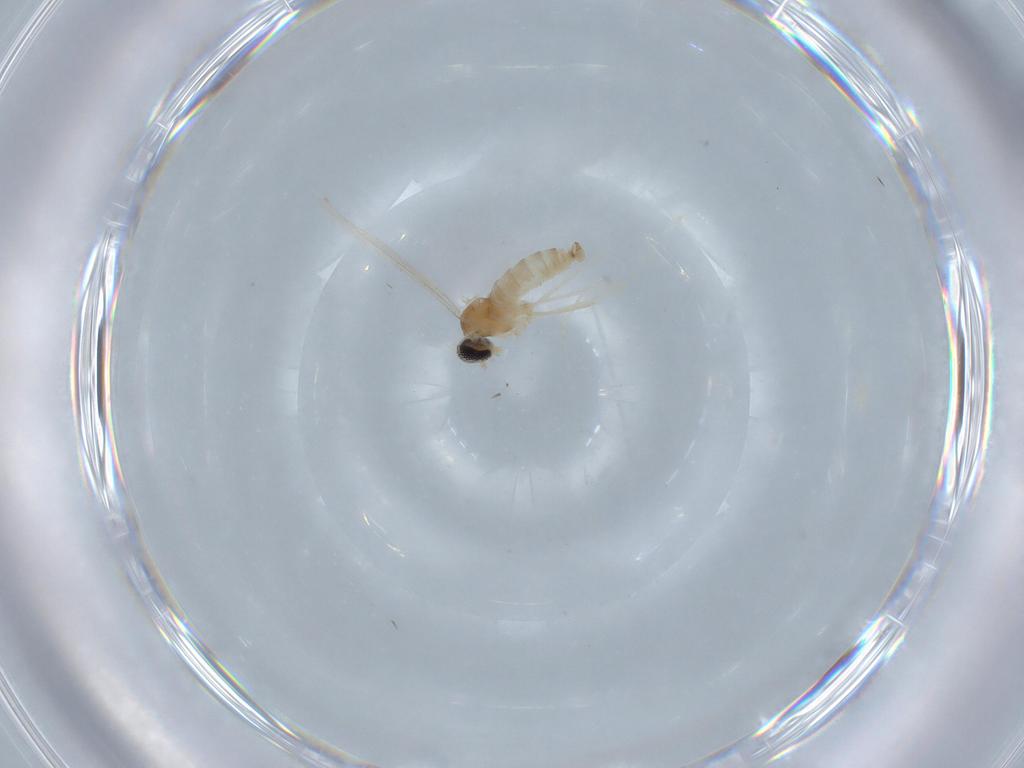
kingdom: Animalia
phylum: Arthropoda
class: Insecta
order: Diptera
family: Cecidomyiidae
